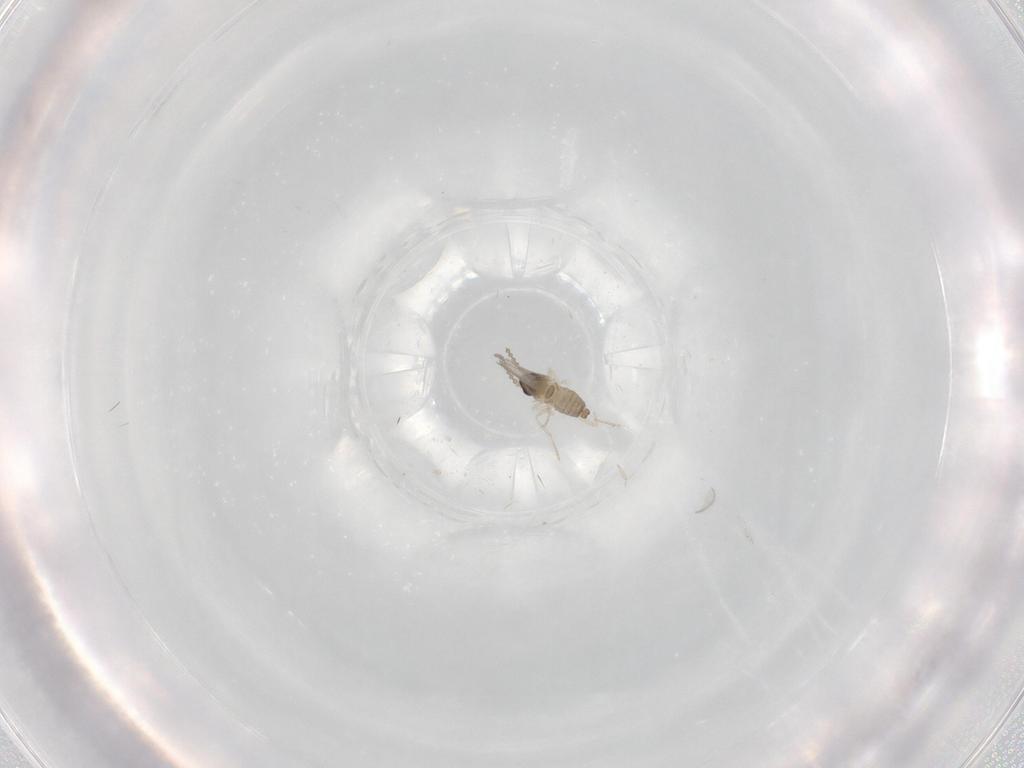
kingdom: Animalia
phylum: Arthropoda
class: Insecta
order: Diptera
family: Cecidomyiidae
